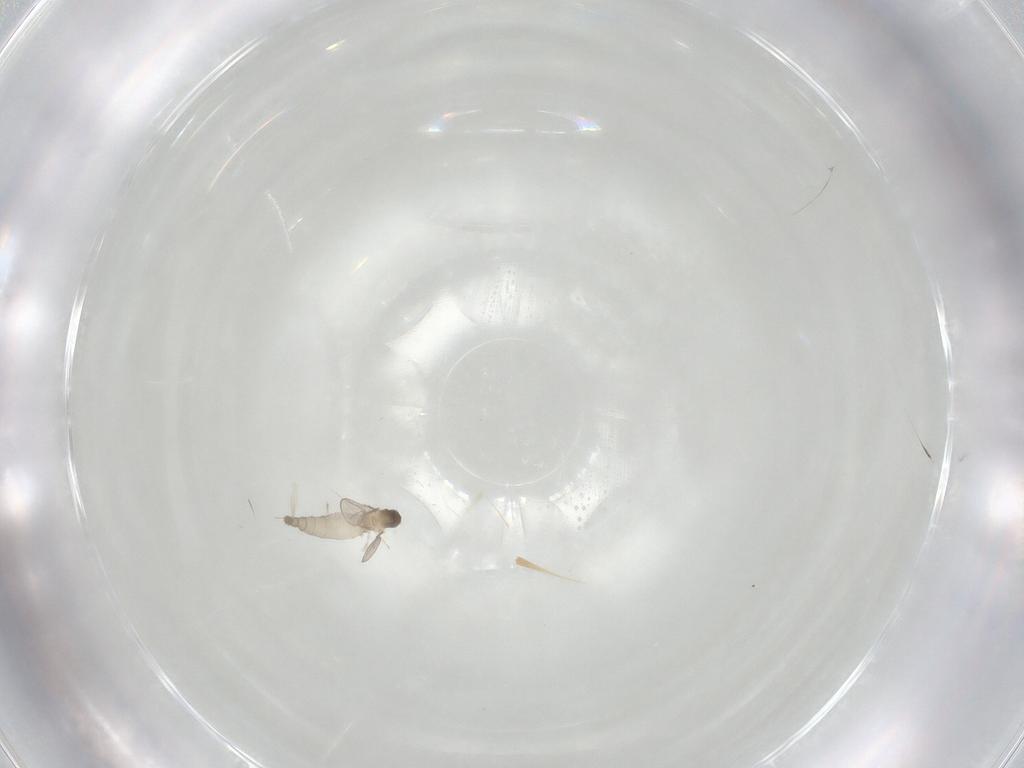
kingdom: Animalia
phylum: Arthropoda
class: Insecta
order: Diptera
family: Cecidomyiidae
